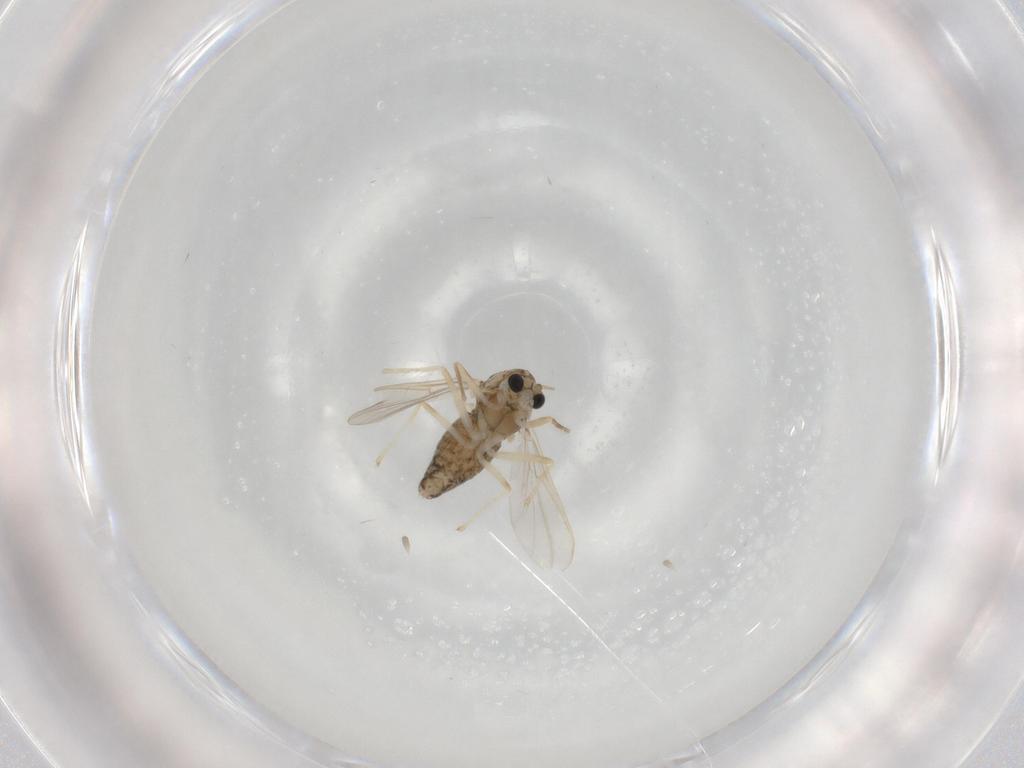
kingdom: Animalia
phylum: Arthropoda
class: Insecta
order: Diptera
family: Chironomidae
